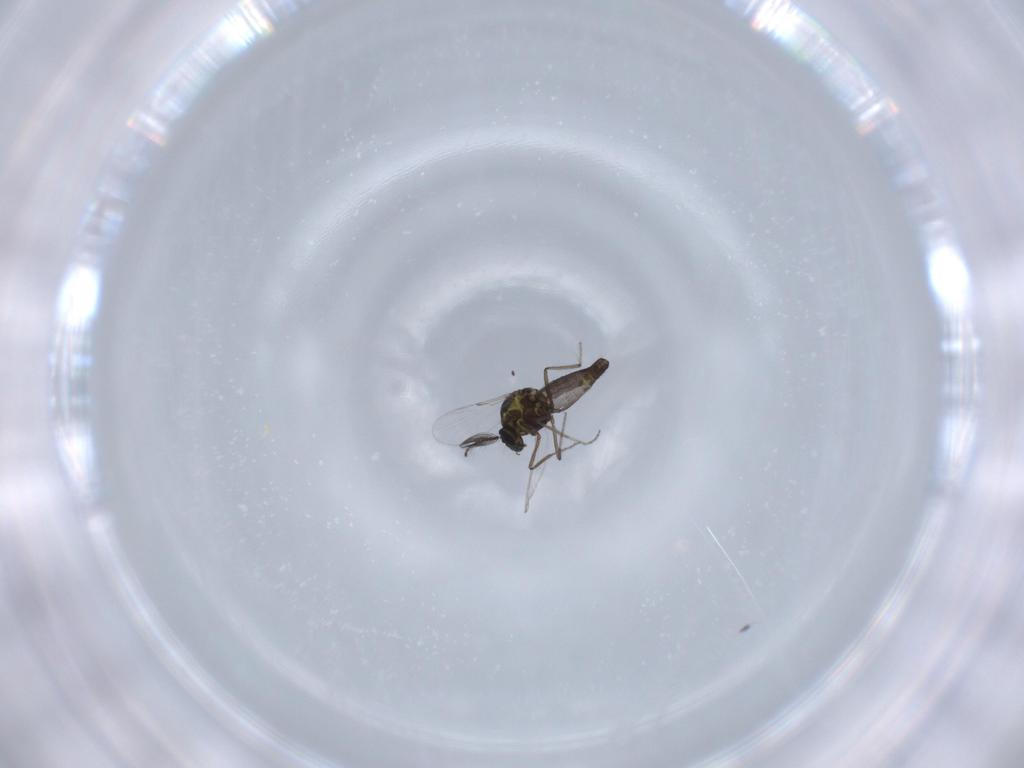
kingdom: Animalia
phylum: Arthropoda
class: Insecta
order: Diptera
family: Ceratopogonidae
